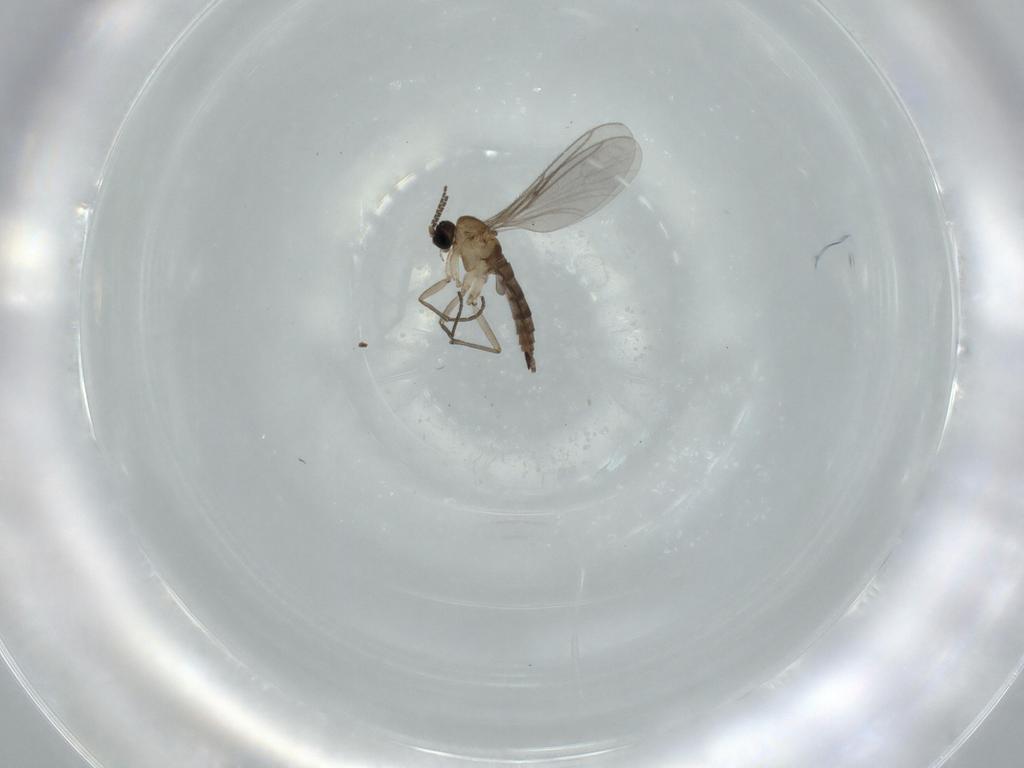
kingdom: Animalia
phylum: Arthropoda
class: Insecta
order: Diptera
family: Sciaridae
